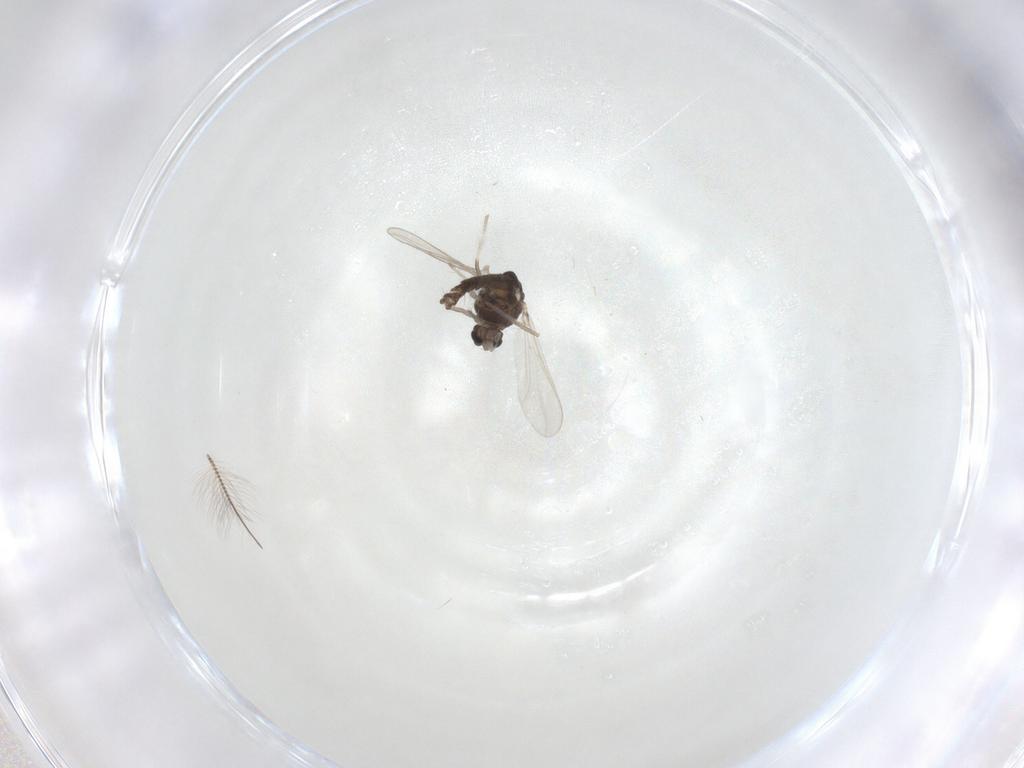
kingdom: Animalia
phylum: Arthropoda
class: Insecta
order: Diptera
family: Chironomidae
